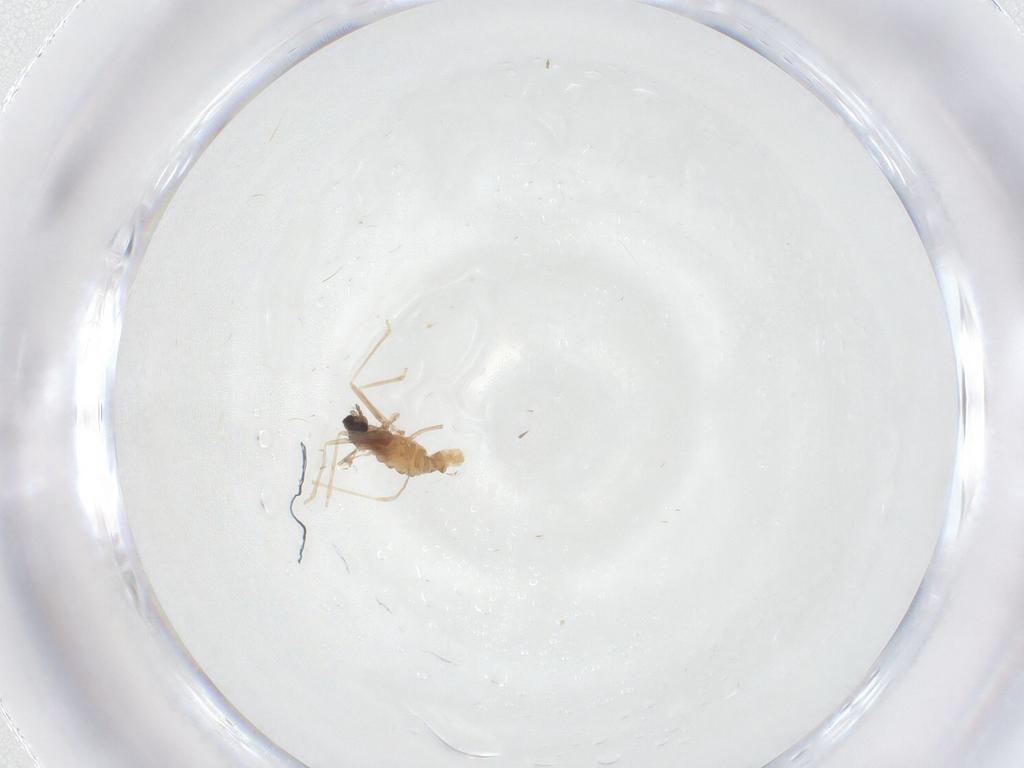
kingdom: Animalia
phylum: Arthropoda
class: Insecta
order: Diptera
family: Cecidomyiidae
